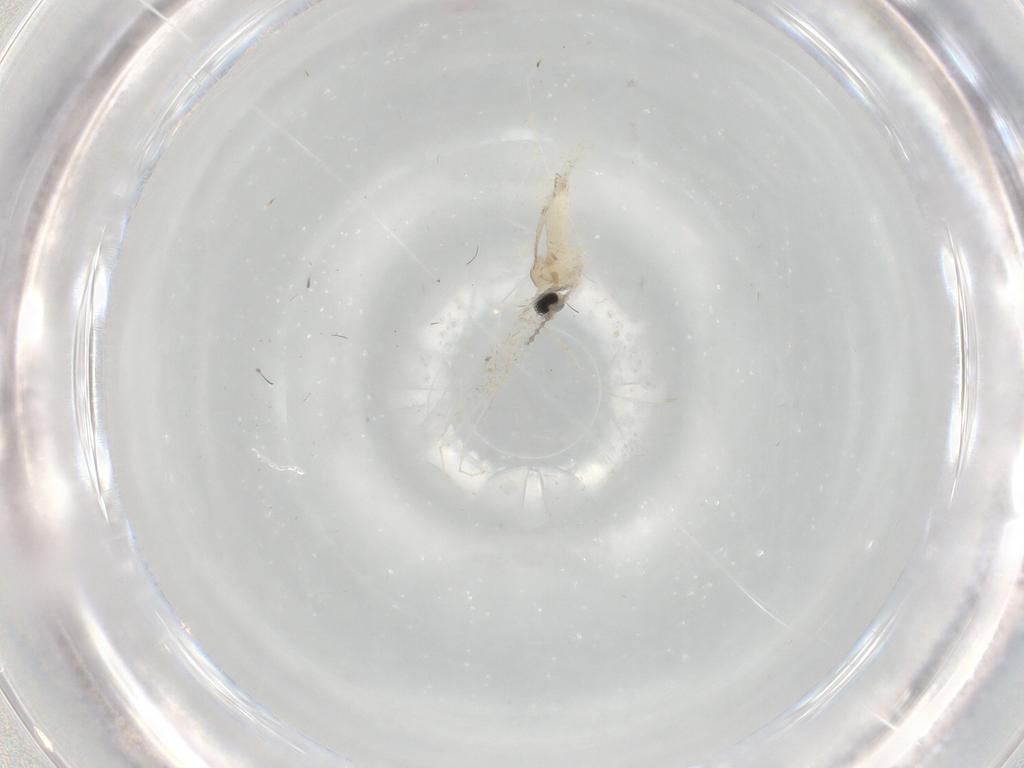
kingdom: Animalia
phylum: Arthropoda
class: Insecta
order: Diptera
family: Cecidomyiidae
